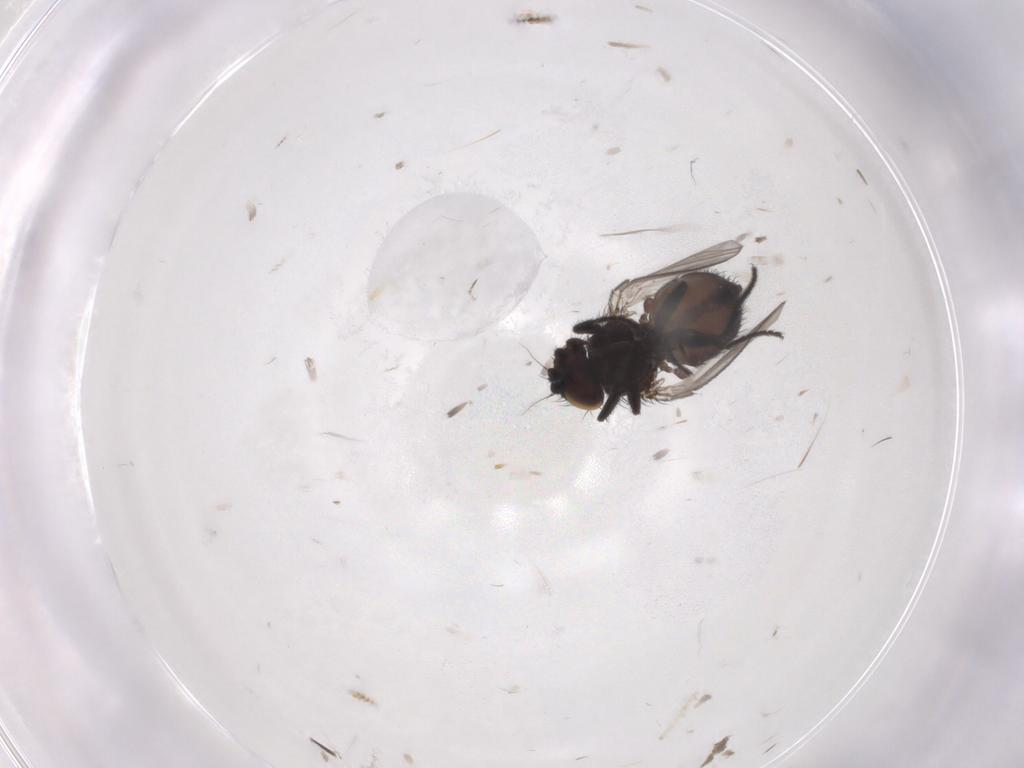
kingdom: Animalia
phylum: Arthropoda
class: Insecta
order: Diptera
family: Milichiidae
